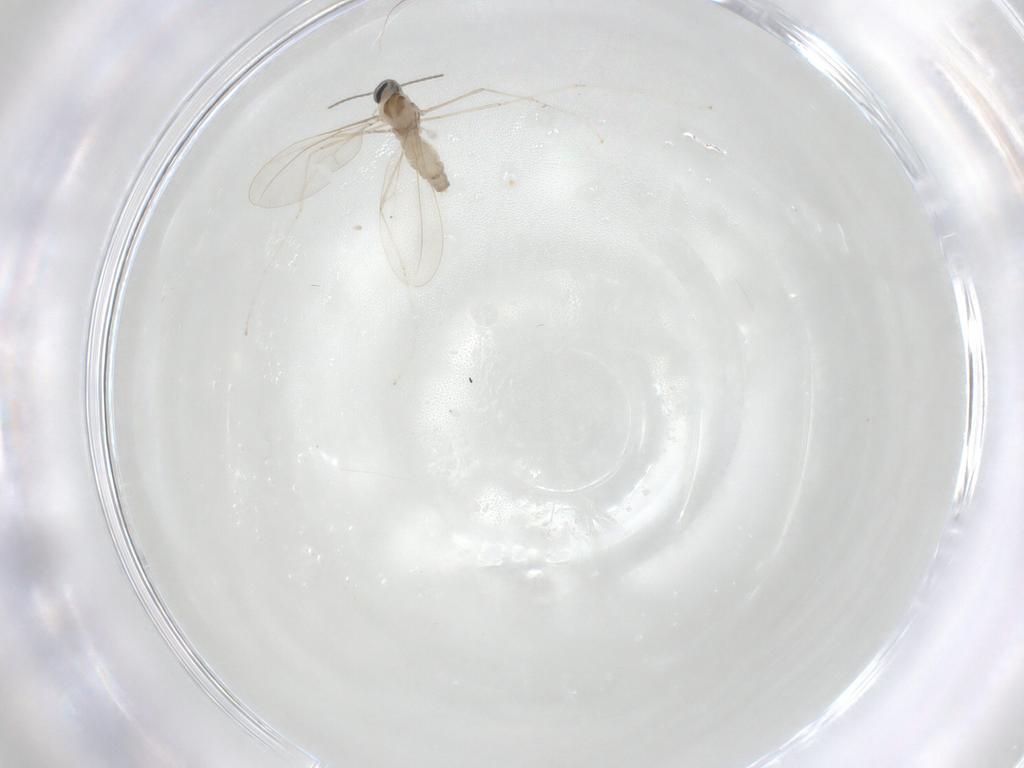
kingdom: Animalia
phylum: Arthropoda
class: Insecta
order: Diptera
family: Cecidomyiidae
